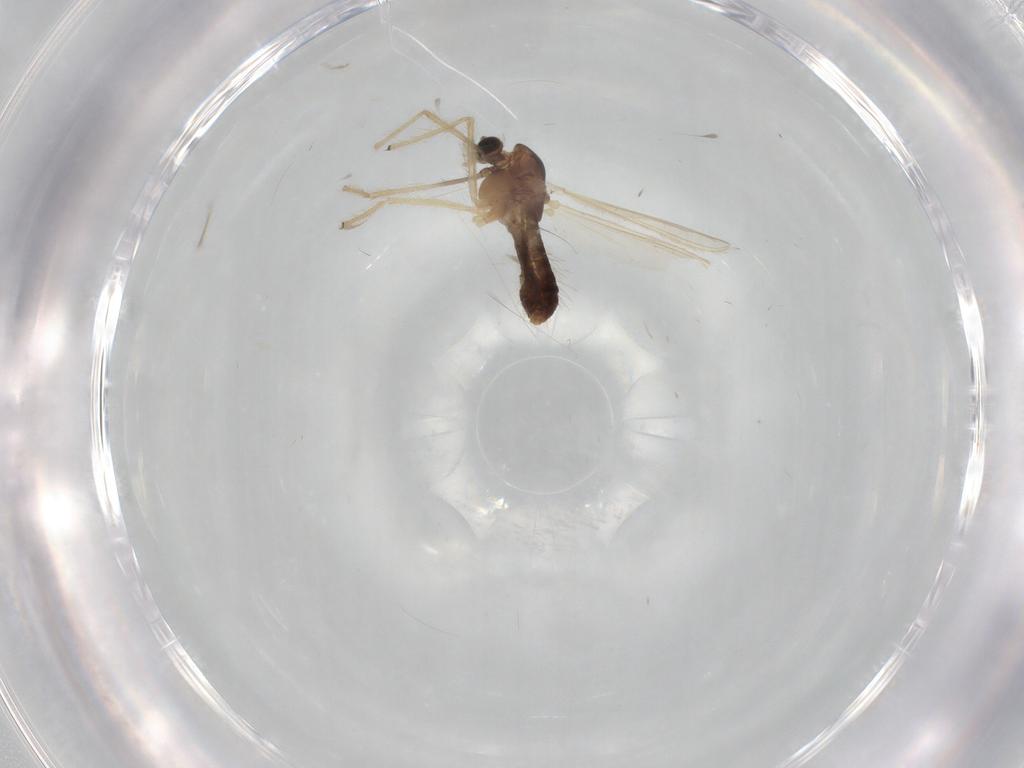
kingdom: Animalia
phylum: Arthropoda
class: Insecta
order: Diptera
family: Chironomidae
